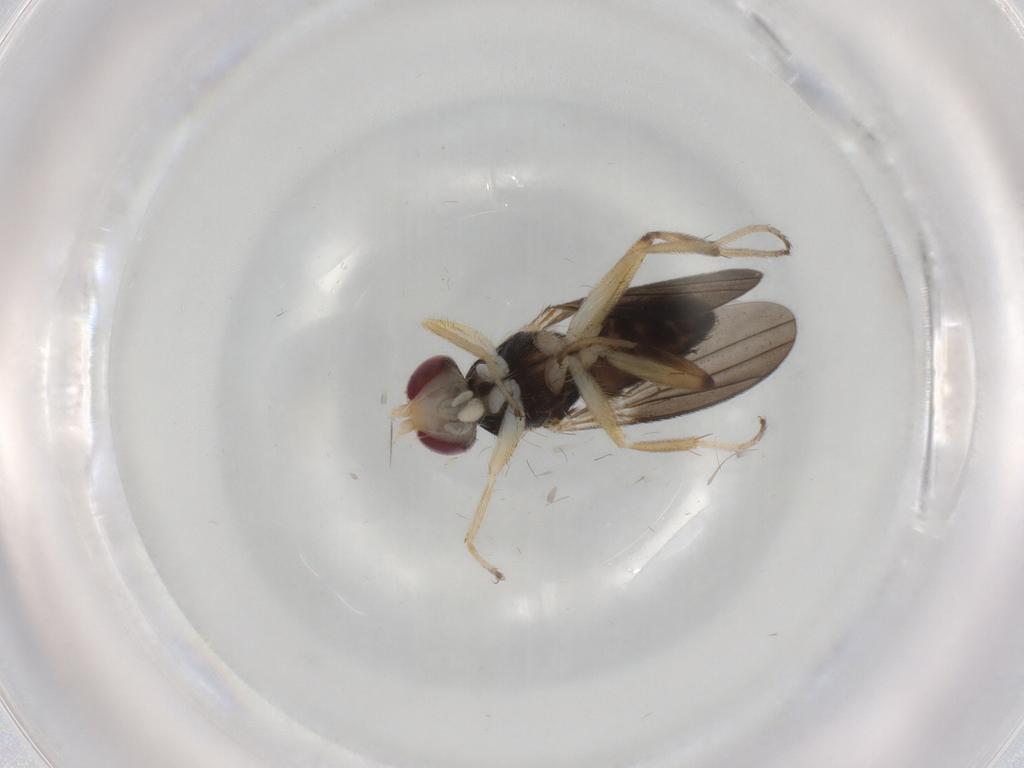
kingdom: Animalia
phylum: Arthropoda
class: Insecta
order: Diptera
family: Clusiidae
